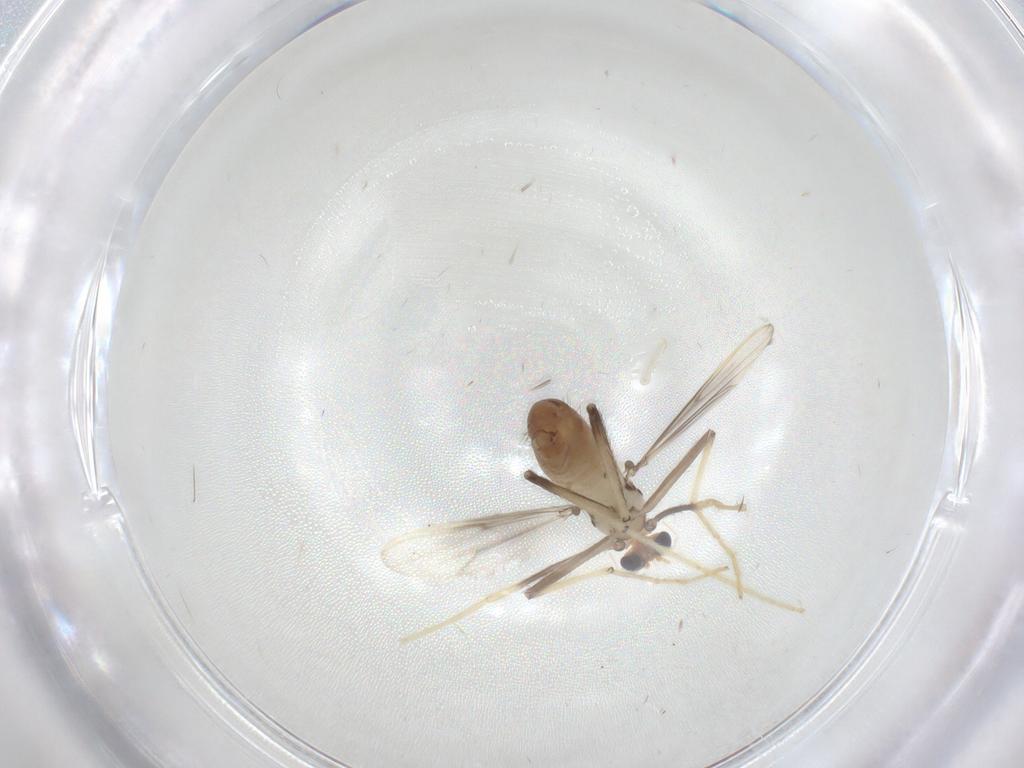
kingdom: Animalia
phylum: Arthropoda
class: Insecta
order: Diptera
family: Chironomidae
